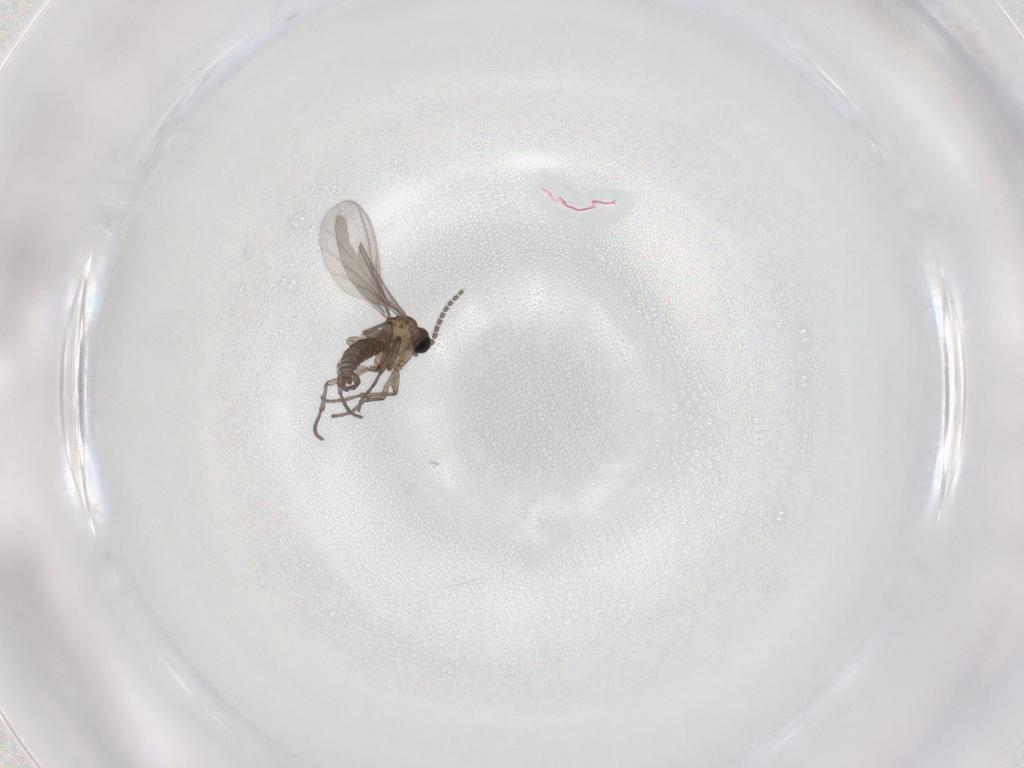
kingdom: Animalia
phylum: Arthropoda
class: Insecta
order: Diptera
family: Sciaridae
